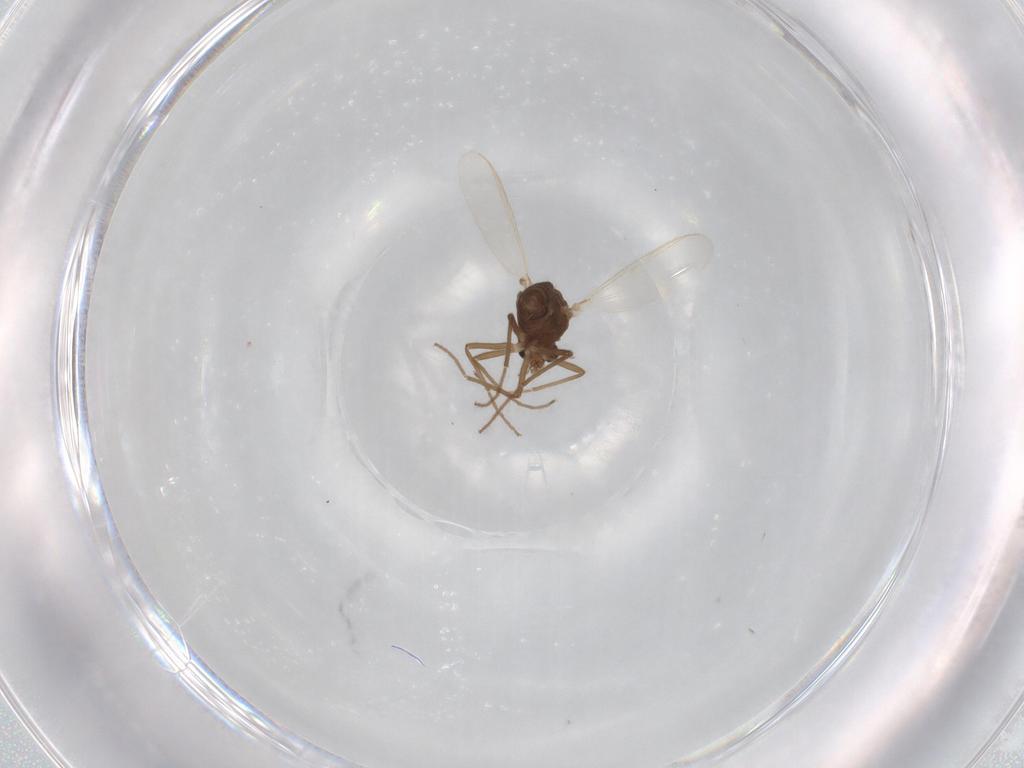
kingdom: Animalia
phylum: Arthropoda
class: Insecta
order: Diptera
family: Chironomidae
